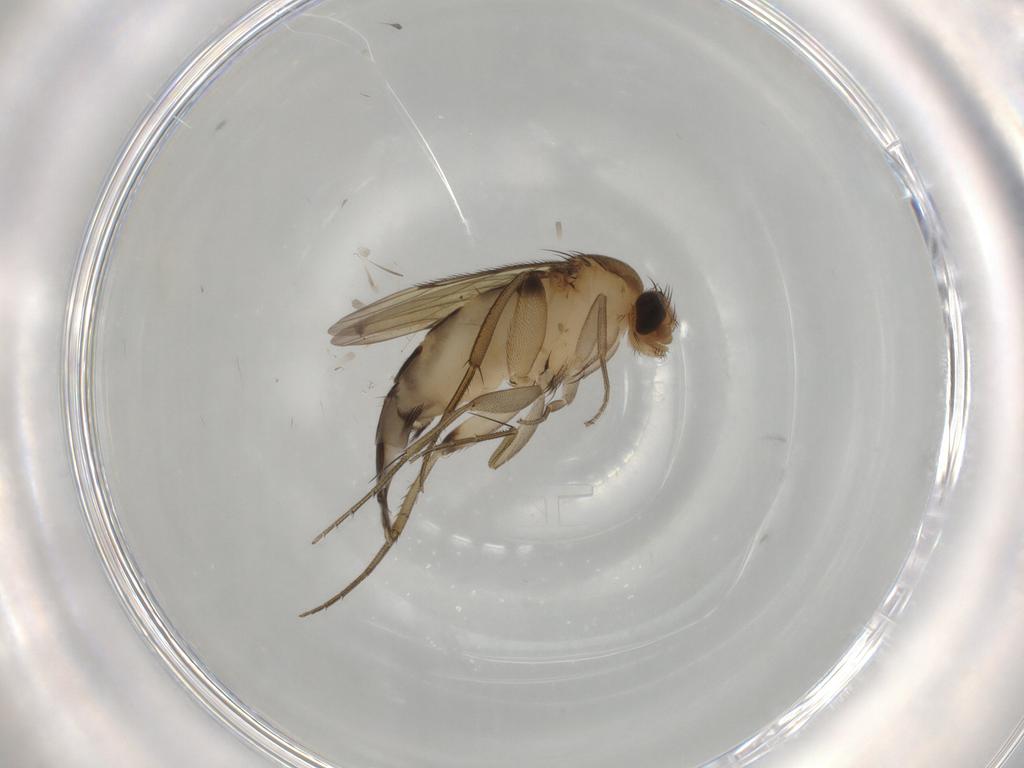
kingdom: Animalia
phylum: Arthropoda
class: Insecta
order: Diptera
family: Phoridae
